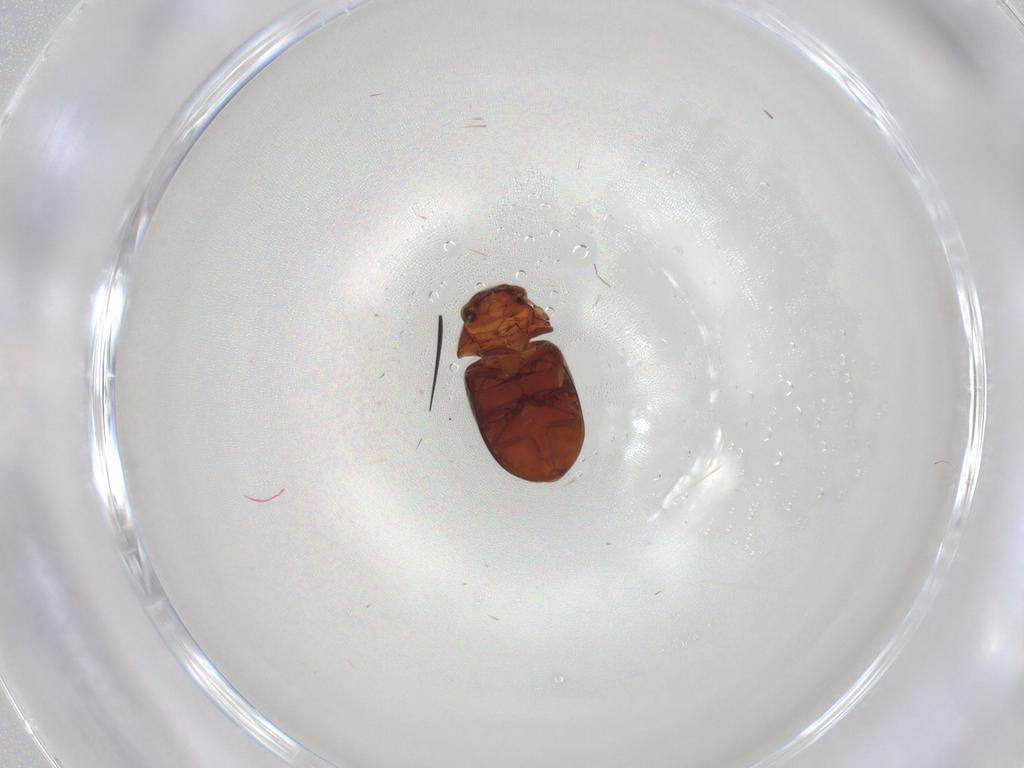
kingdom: Animalia
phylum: Arthropoda
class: Insecta
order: Coleoptera
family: Ptinidae
